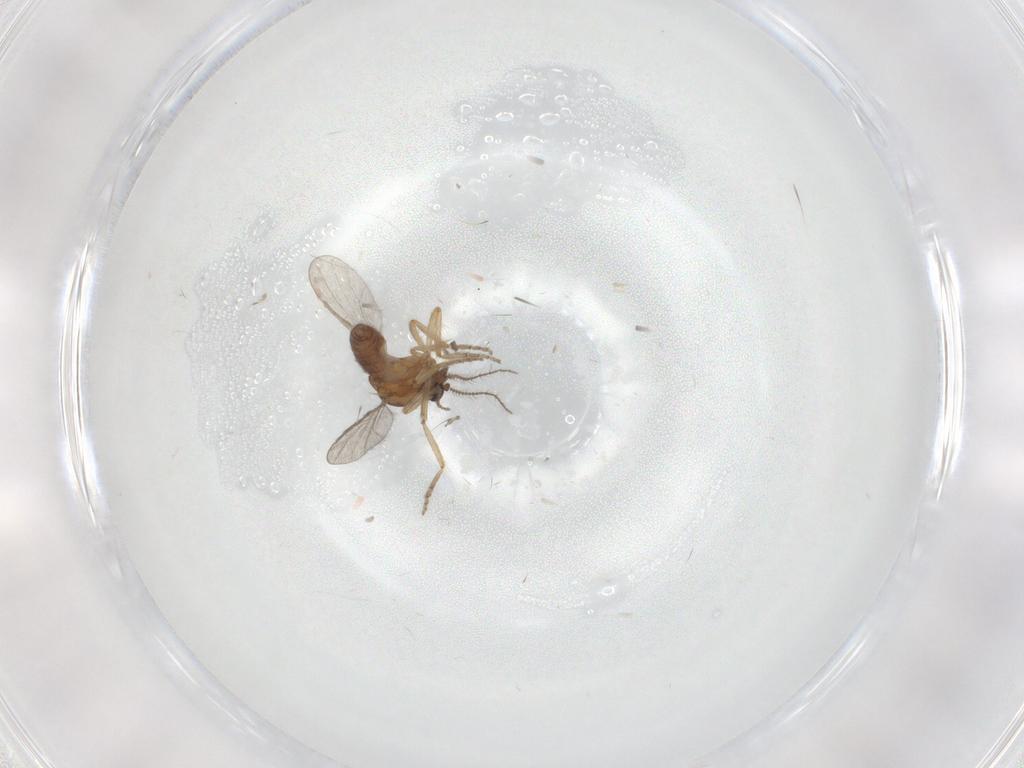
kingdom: Animalia
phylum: Arthropoda
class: Insecta
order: Diptera
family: Ceratopogonidae
